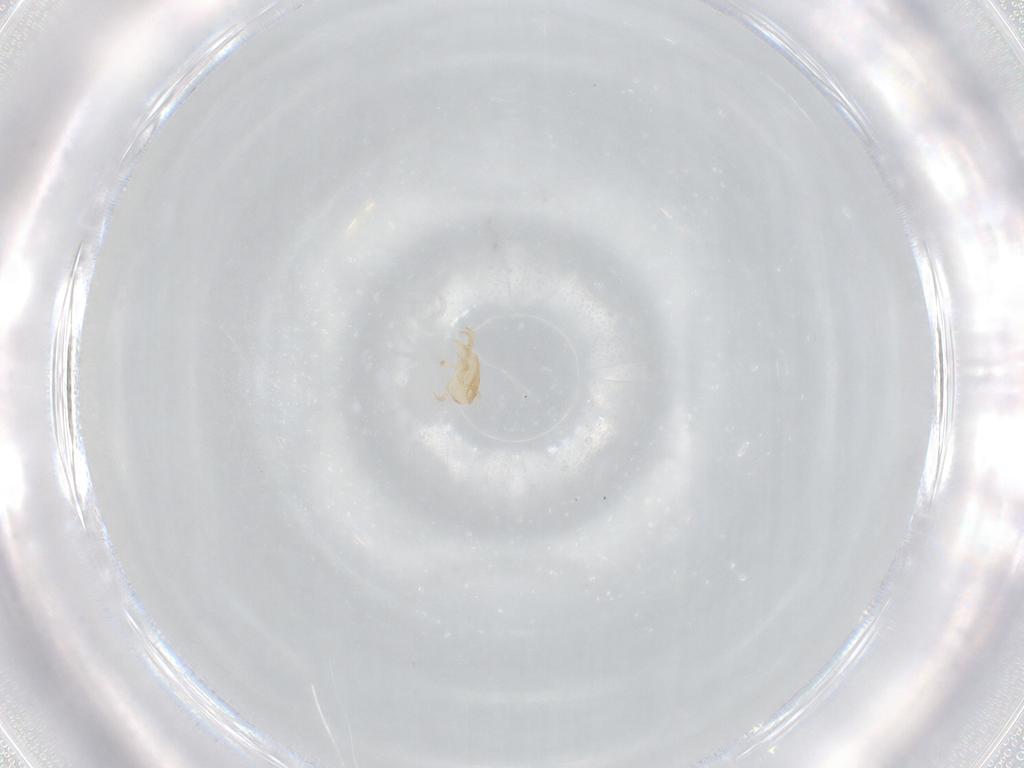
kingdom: Animalia
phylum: Arthropoda
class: Arachnida
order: Mesostigmata
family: Phytoseiidae
